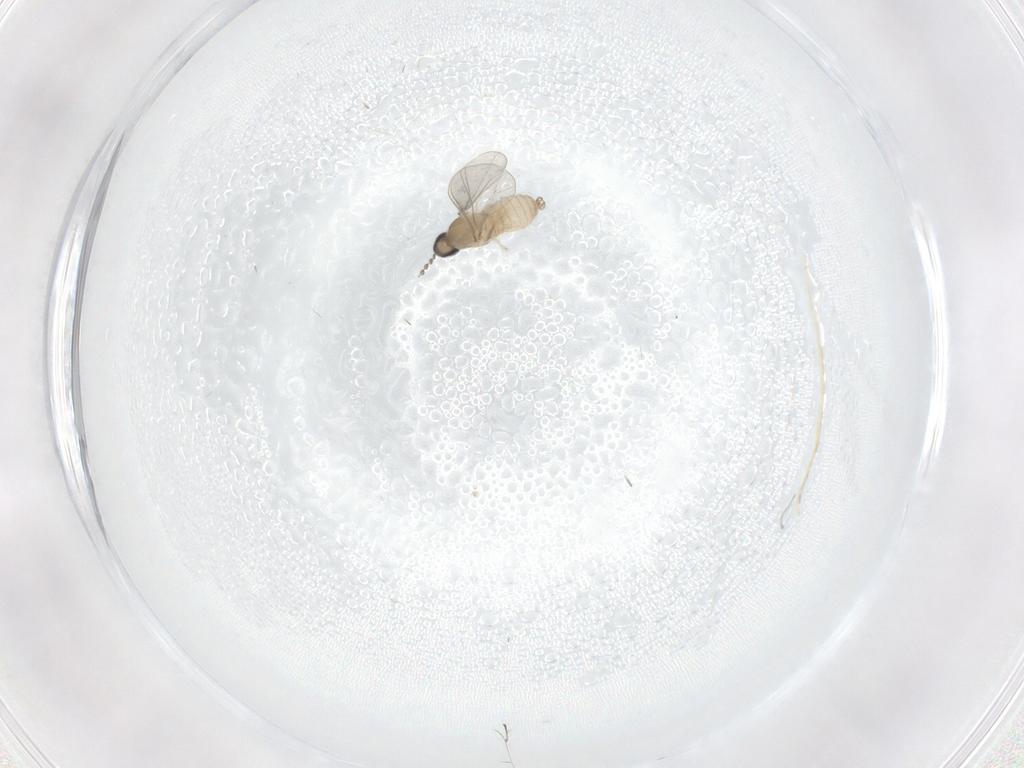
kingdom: Animalia
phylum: Arthropoda
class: Insecta
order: Diptera
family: Cecidomyiidae
